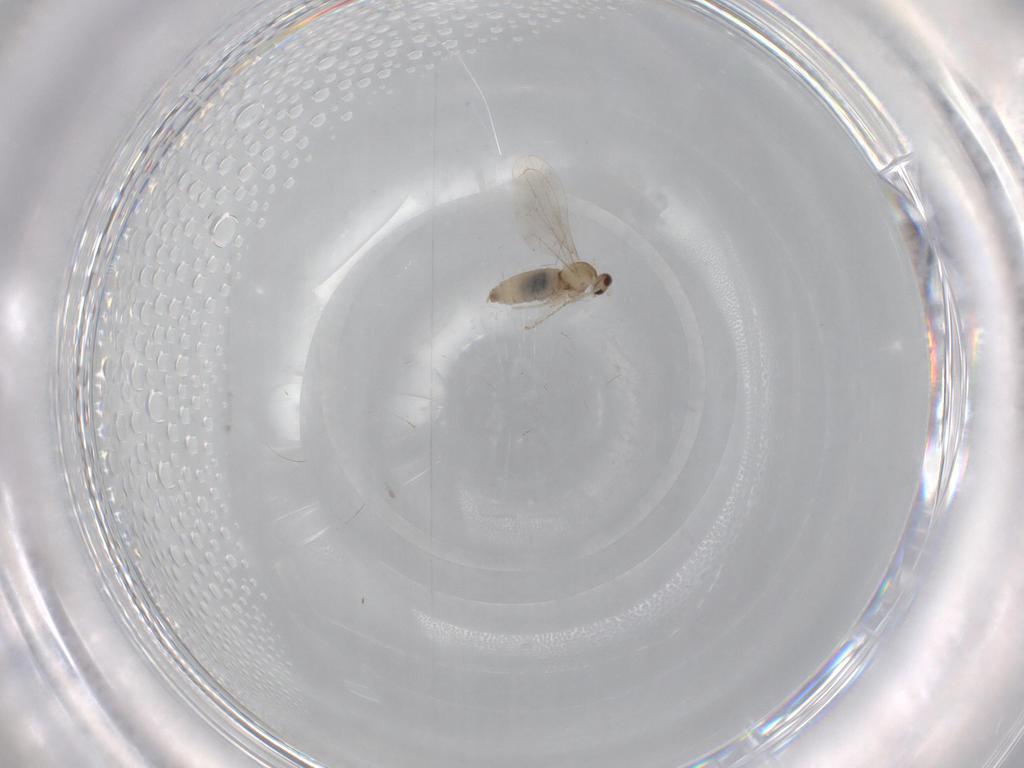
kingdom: Animalia
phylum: Arthropoda
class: Insecta
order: Diptera
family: Cecidomyiidae
